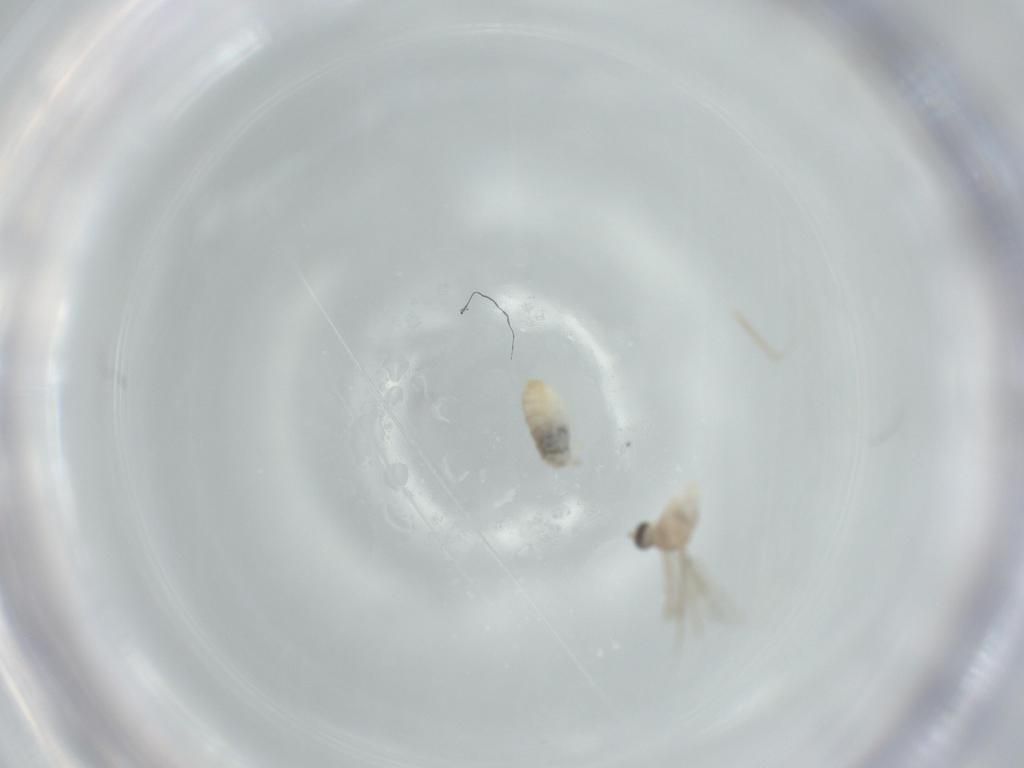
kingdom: Animalia
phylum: Arthropoda
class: Insecta
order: Diptera
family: Cecidomyiidae
